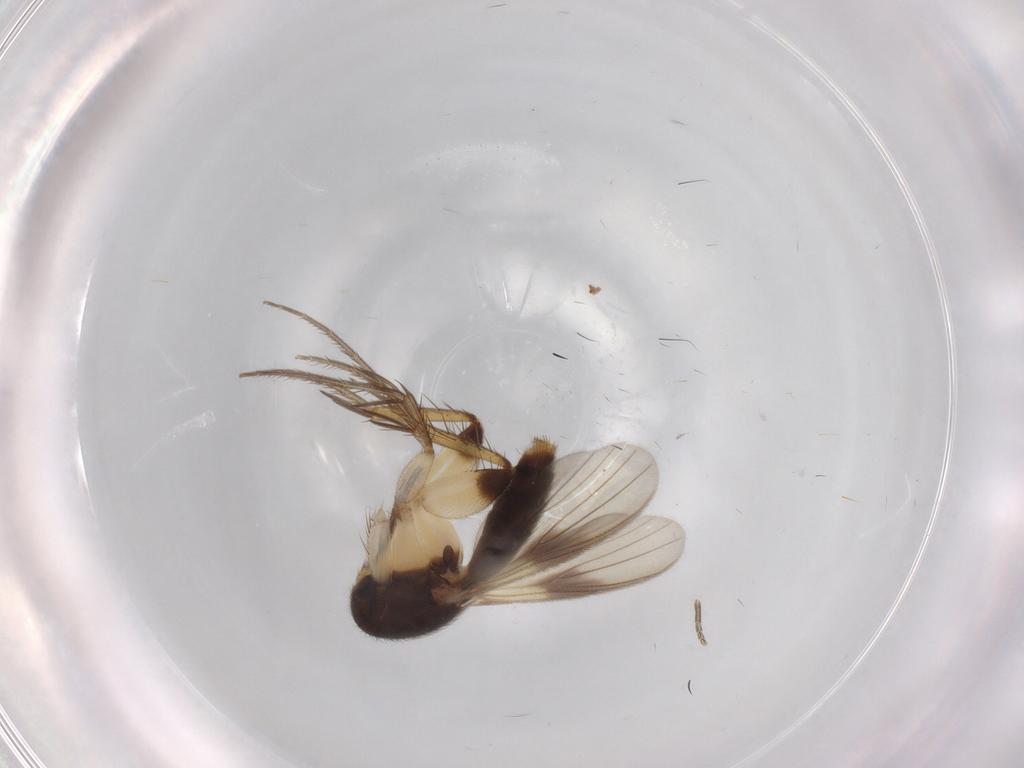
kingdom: Animalia
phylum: Arthropoda
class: Insecta
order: Diptera
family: Phoridae
